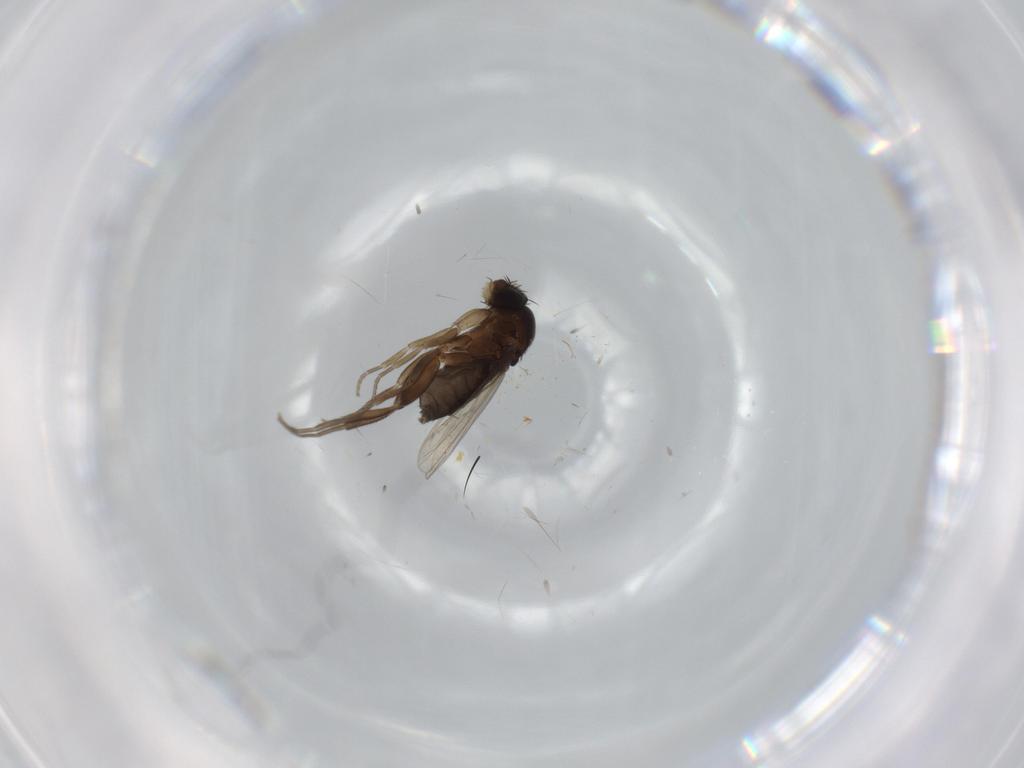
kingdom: Animalia
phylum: Arthropoda
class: Insecta
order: Diptera
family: Phoridae
